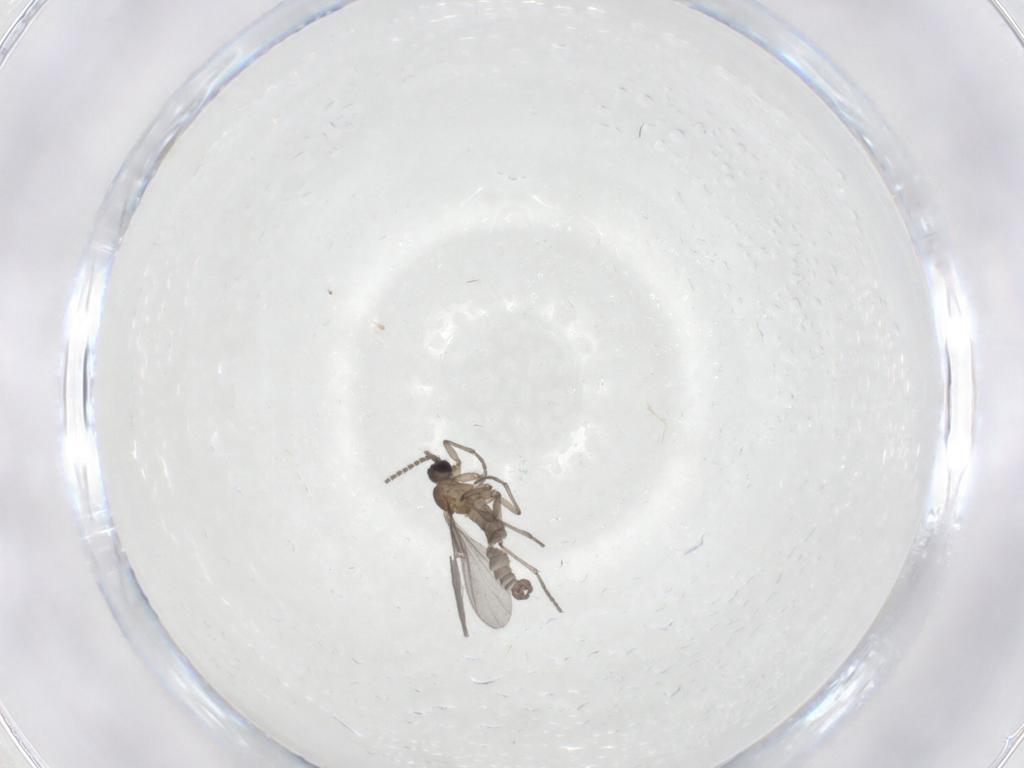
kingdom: Animalia
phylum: Arthropoda
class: Insecta
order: Diptera
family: Sciaridae
